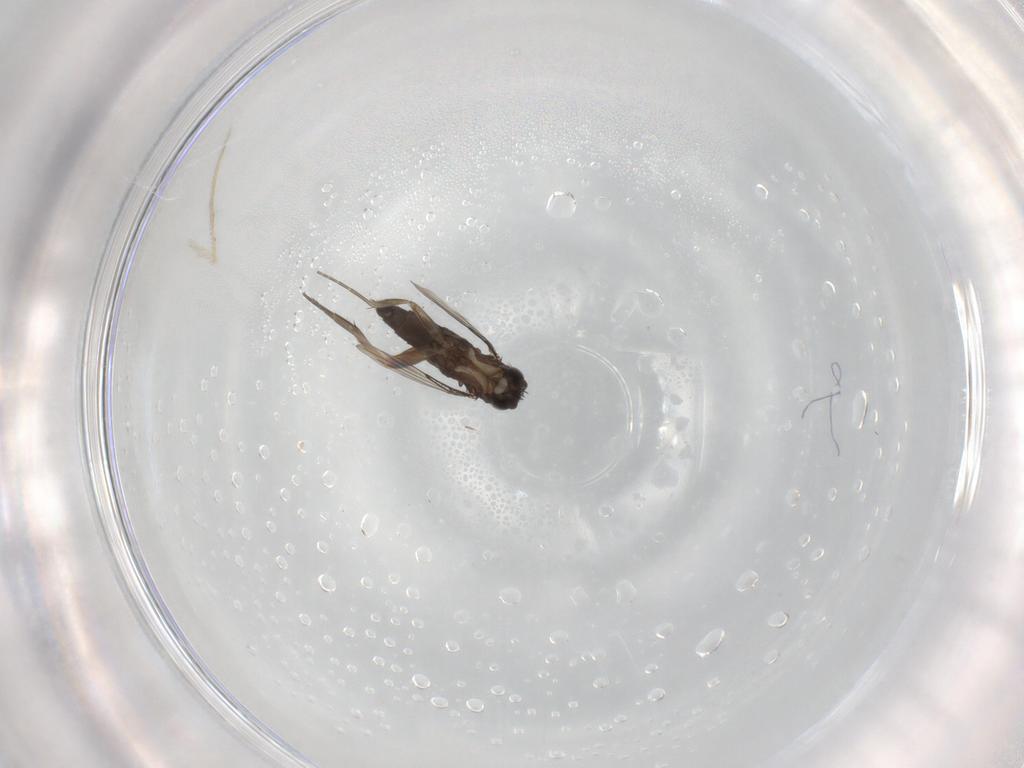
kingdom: Animalia
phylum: Arthropoda
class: Insecta
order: Diptera
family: Phoridae
